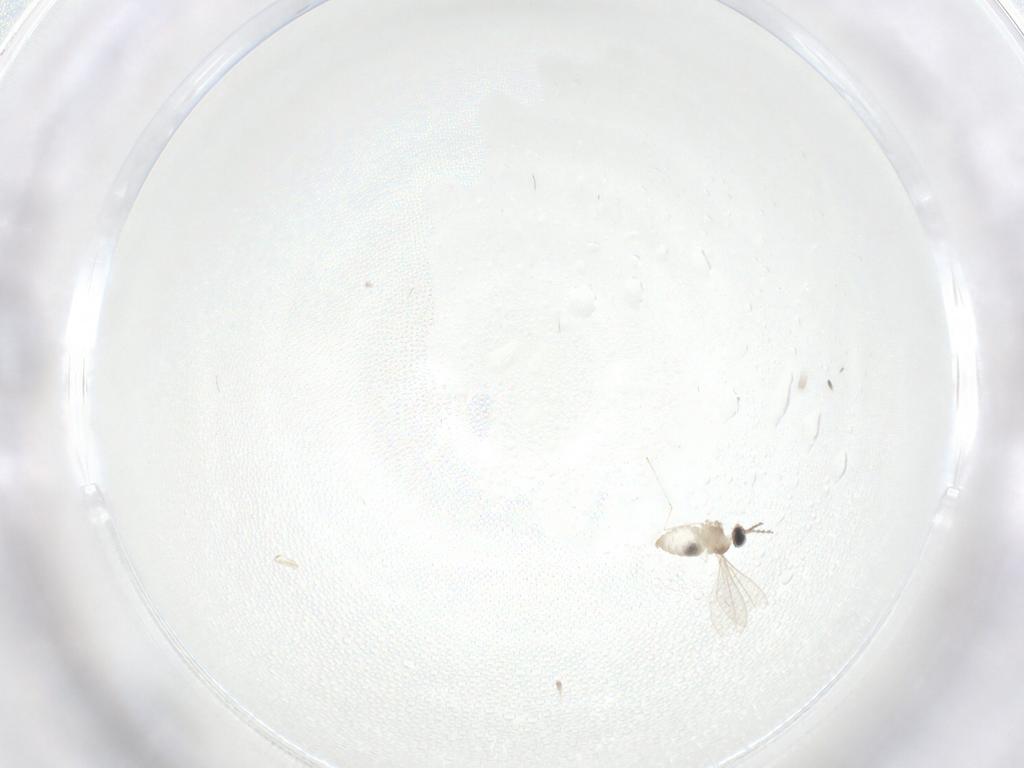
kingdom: Animalia
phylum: Arthropoda
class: Insecta
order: Diptera
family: Cecidomyiidae
